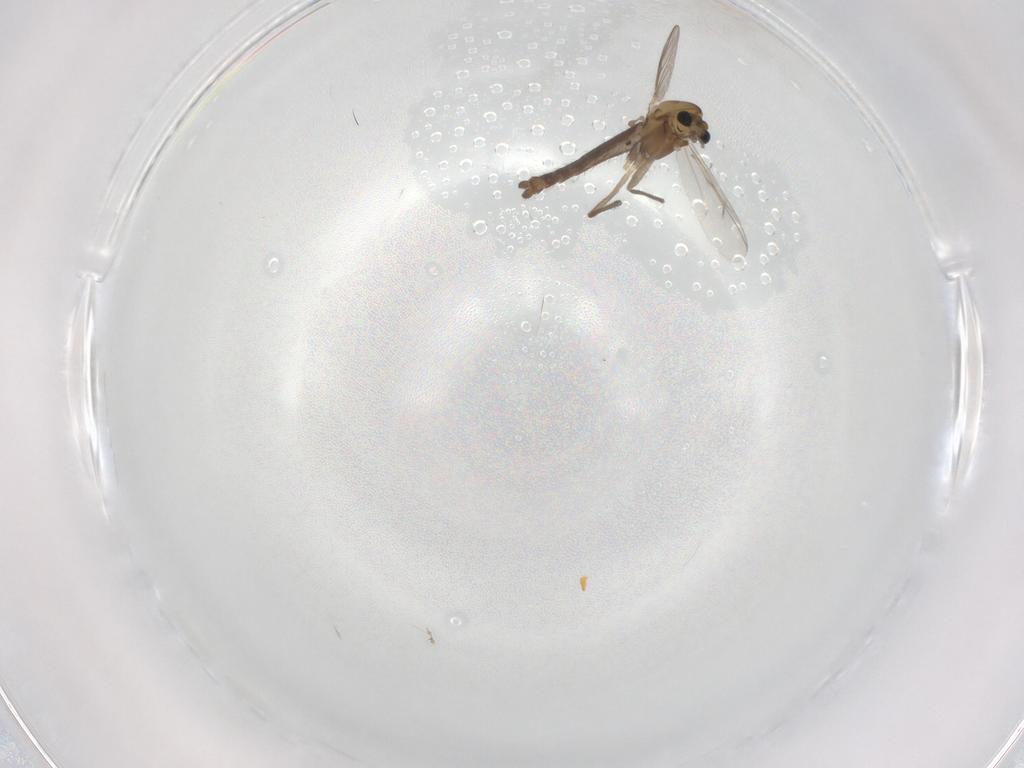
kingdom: Animalia
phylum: Arthropoda
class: Insecta
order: Diptera
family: Chironomidae
